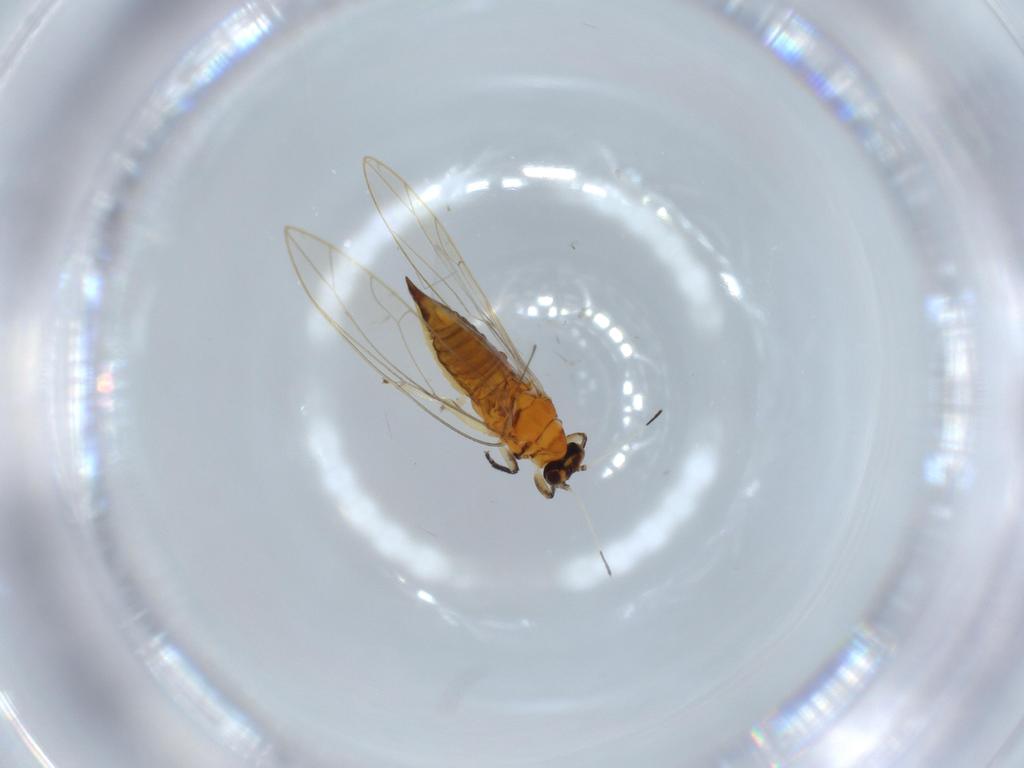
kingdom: Animalia
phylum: Arthropoda
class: Insecta
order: Hemiptera
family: Triozidae
